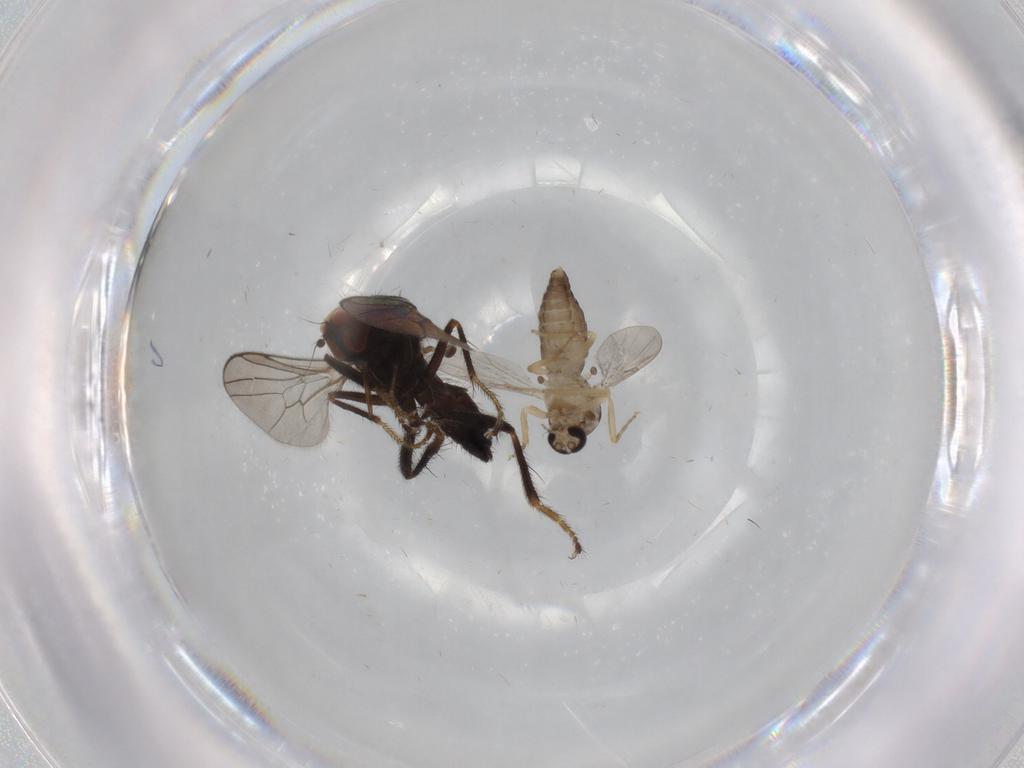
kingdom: Animalia
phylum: Arthropoda
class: Insecta
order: Diptera
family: Hybotidae
